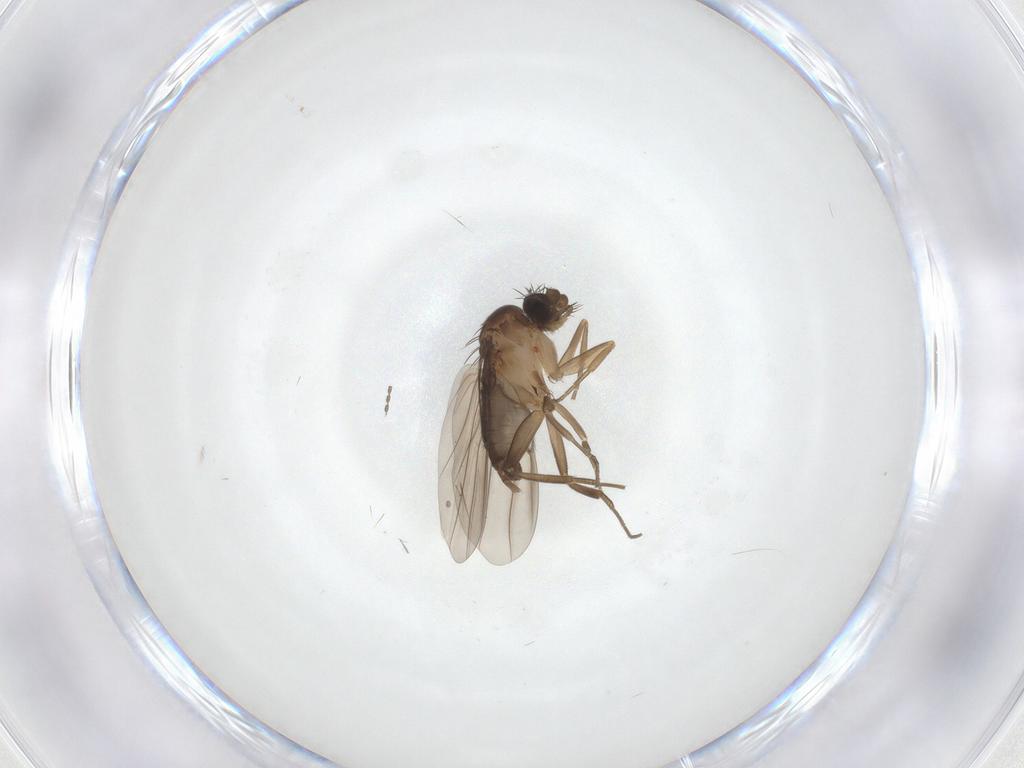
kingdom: Animalia
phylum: Arthropoda
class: Insecta
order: Diptera
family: Phoridae
